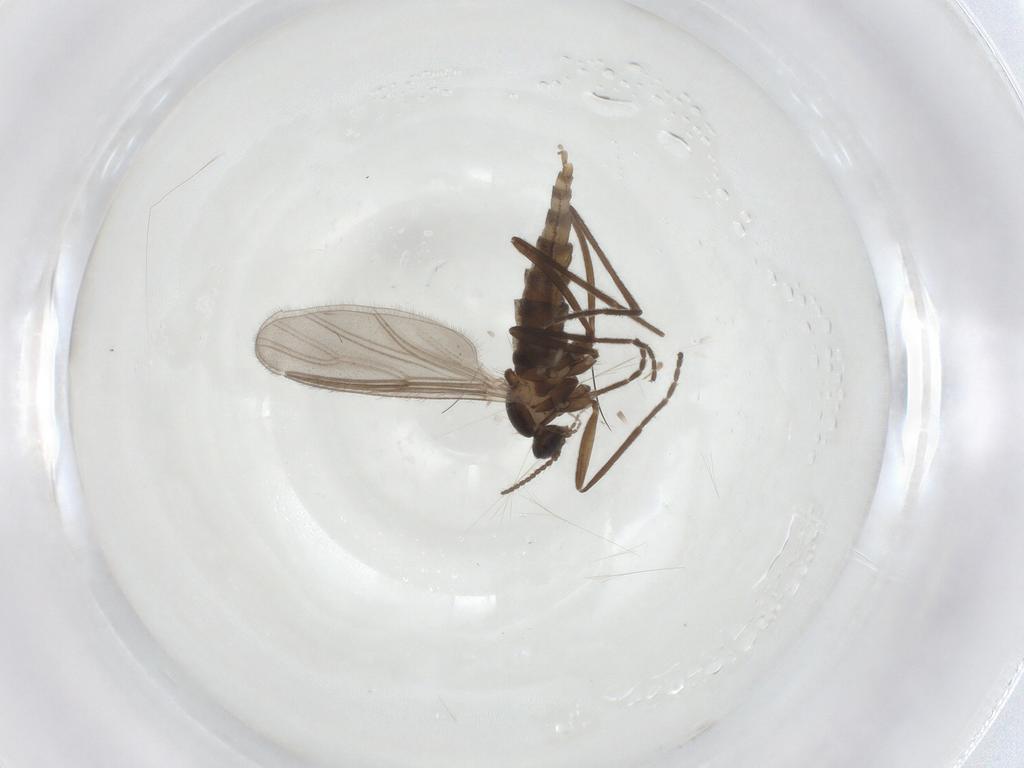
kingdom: Animalia
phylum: Arthropoda
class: Insecta
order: Diptera
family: Cecidomyiidae
